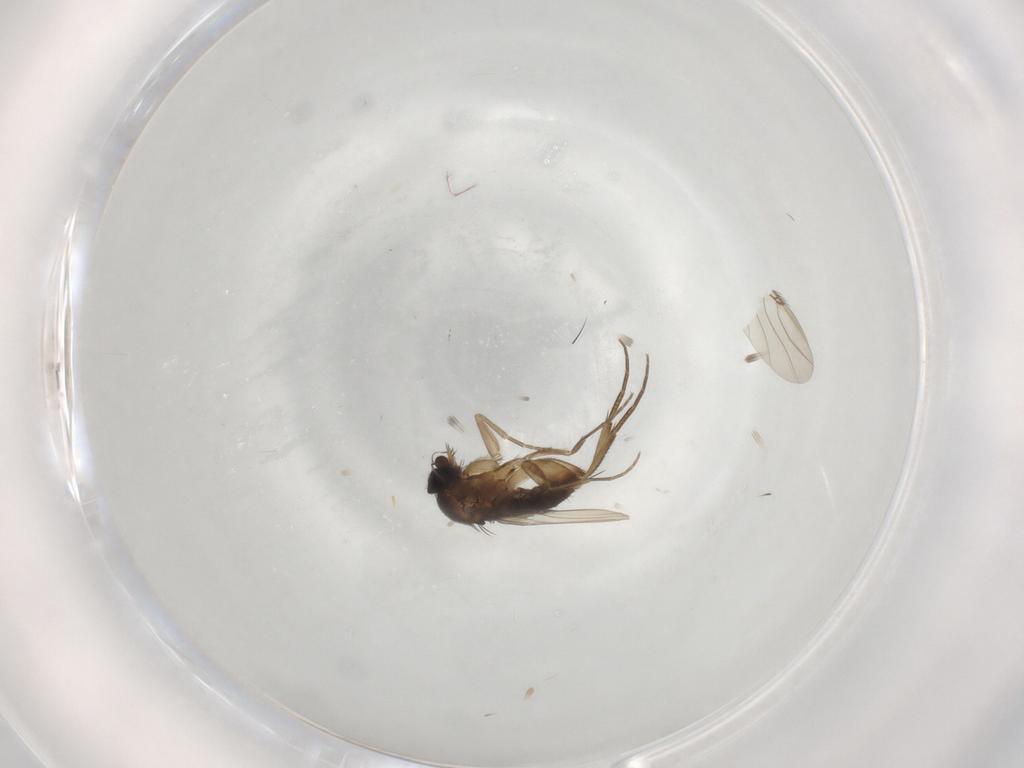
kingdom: Animalia
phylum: Arthropoda
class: Insecta
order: Diptera
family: Phoridae
